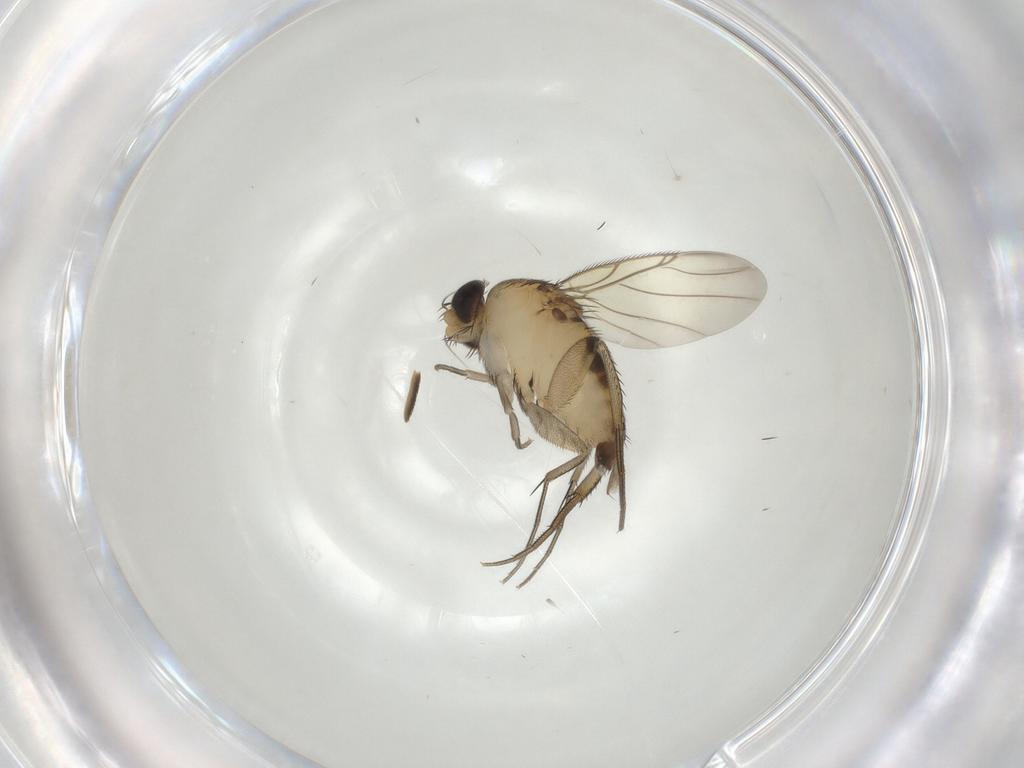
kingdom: Animalia
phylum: Arthropoda
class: Insecta
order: Diptera
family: Phoridae
